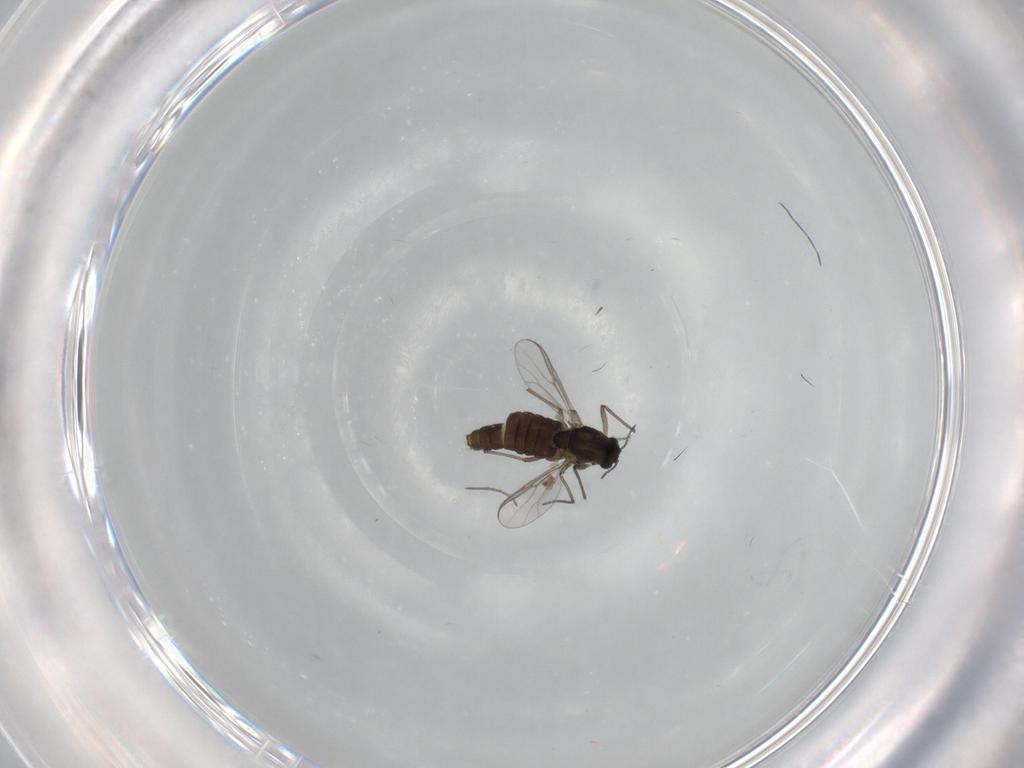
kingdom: Animalia
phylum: Arthropoda
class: Insecta
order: Diptera
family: Chironomidae
